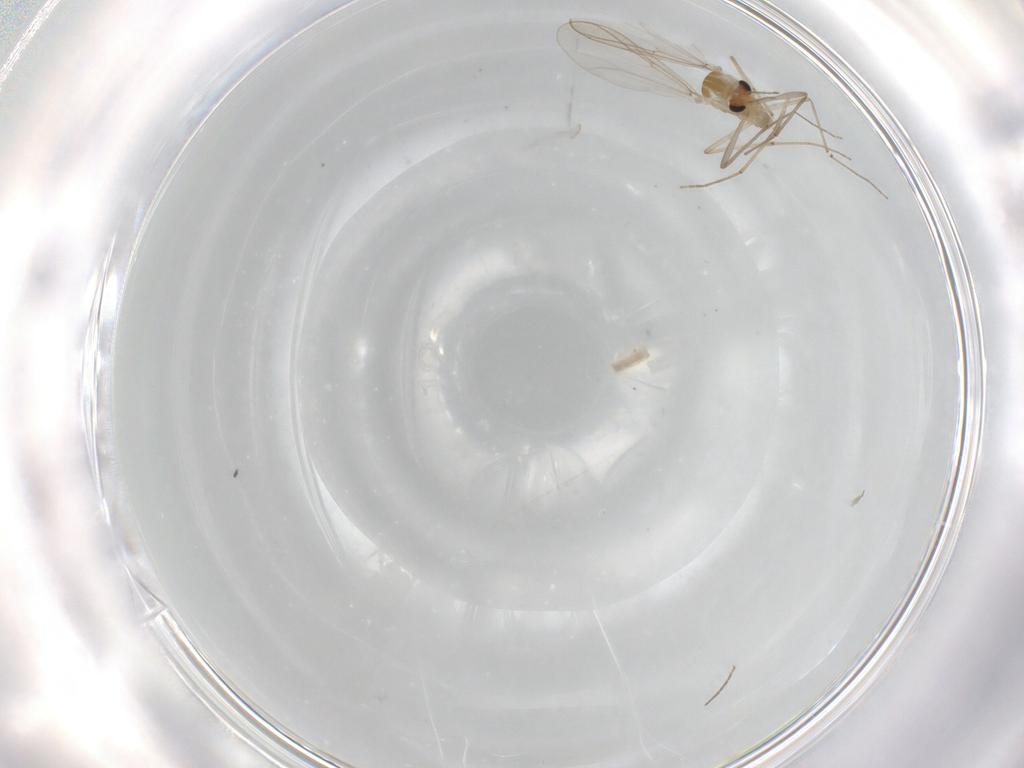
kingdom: Animalia
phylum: Arthropoda
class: Insecta
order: Diptera
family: Chironomidae
